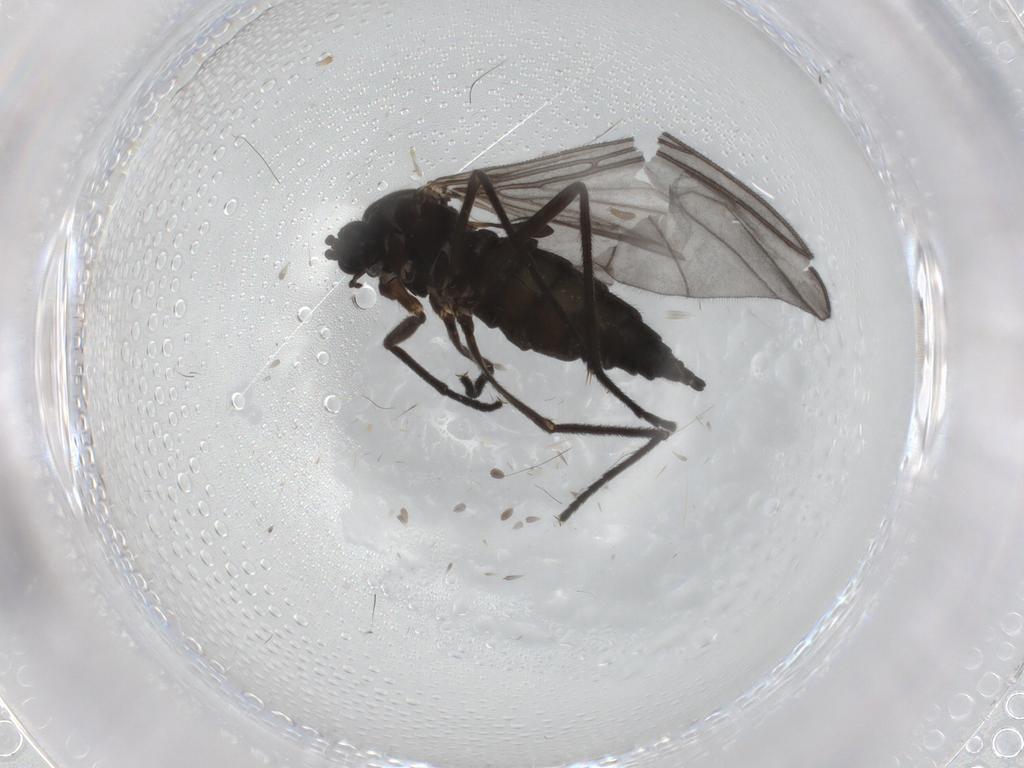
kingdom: Animalia
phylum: Arthropoda
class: Insecta
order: Diptera
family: Sciaridae
